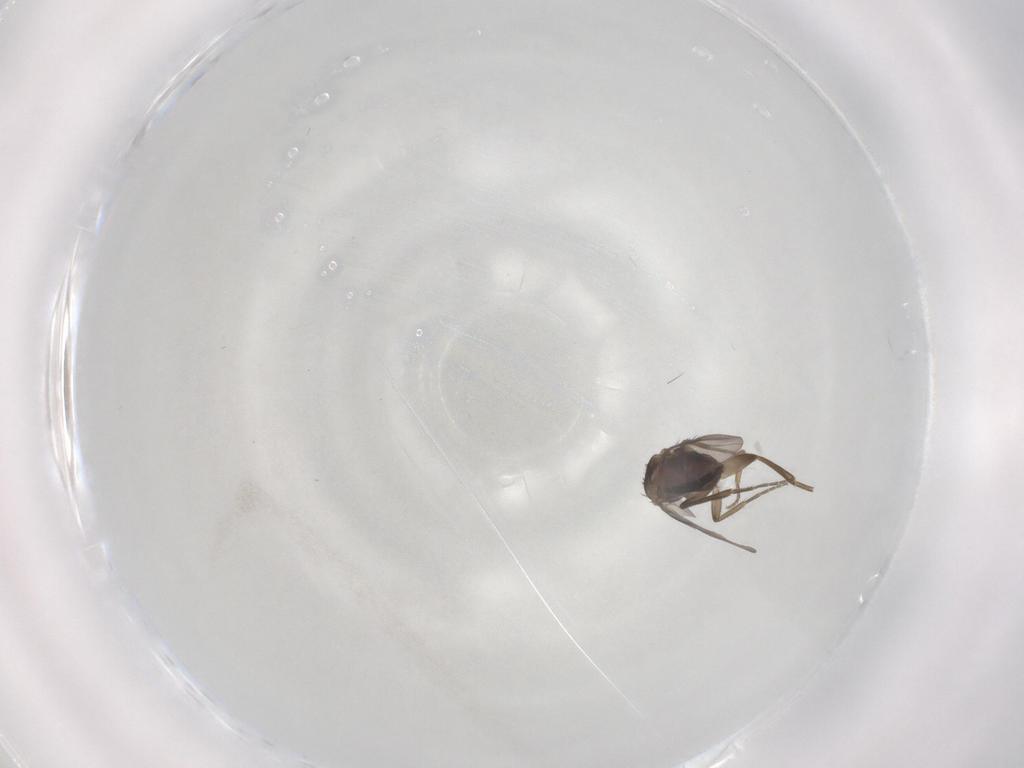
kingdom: Animalia
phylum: Arthropoda
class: Insecta
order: Diptera
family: Phoridae
